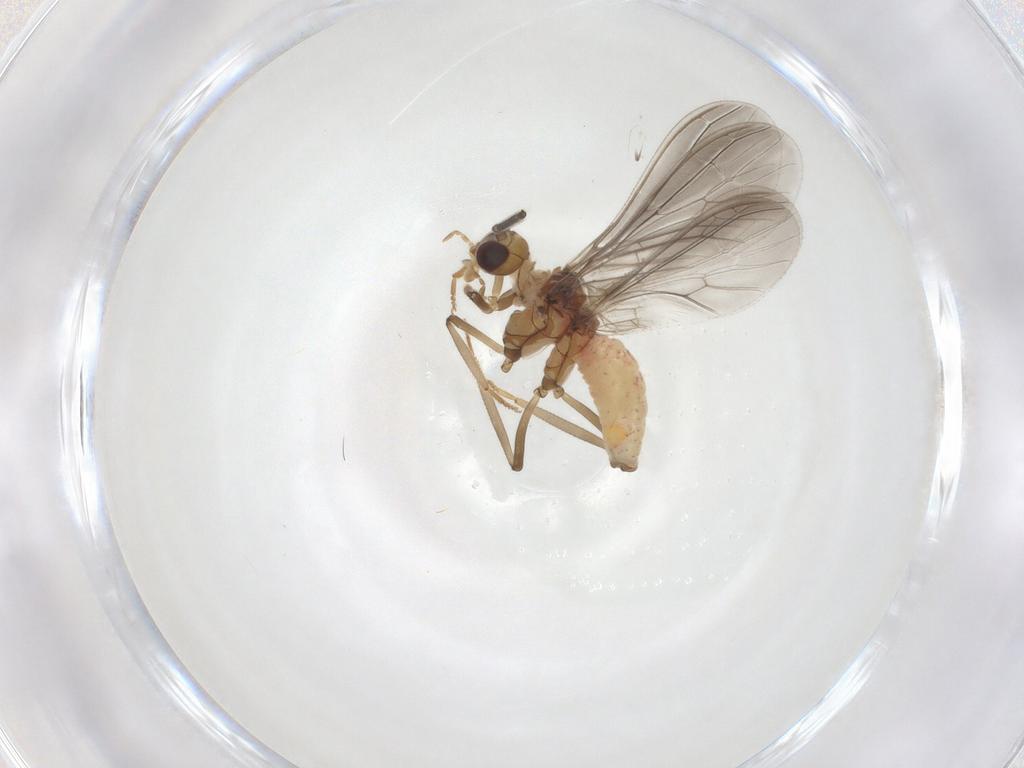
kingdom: Animalia
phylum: Arthropoda
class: Insecta
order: Neuroptera
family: Coniopterygidae
